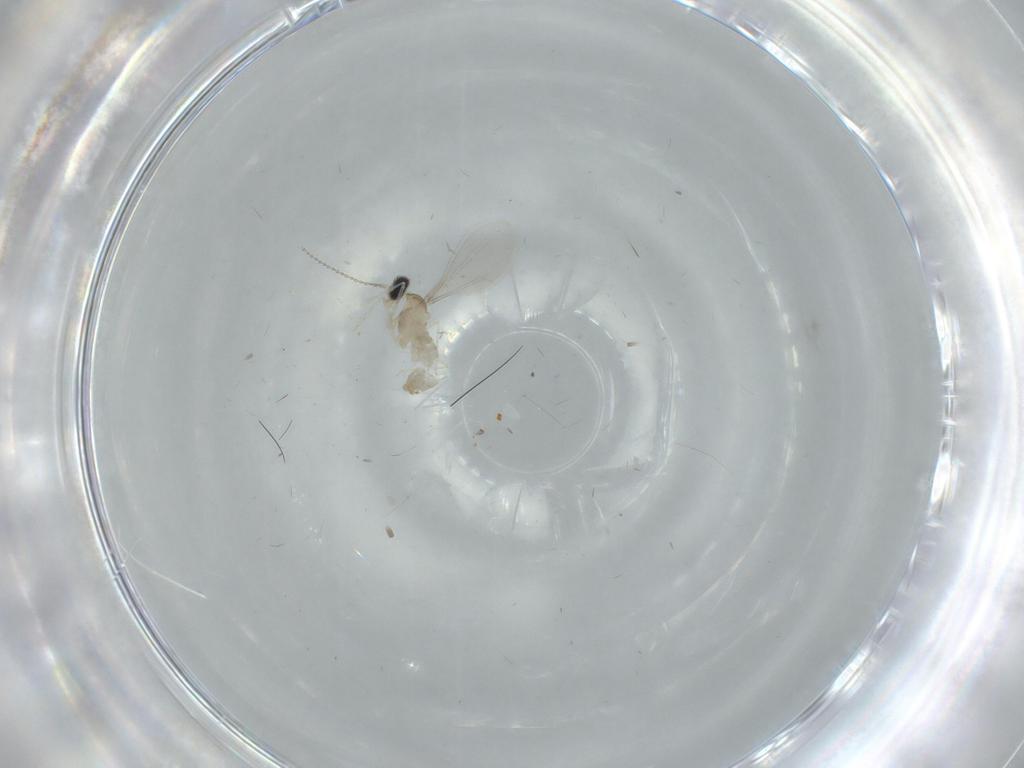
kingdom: Animalia
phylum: Arthropoda
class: Insecta
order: Diptera
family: Cecidomyiidae
